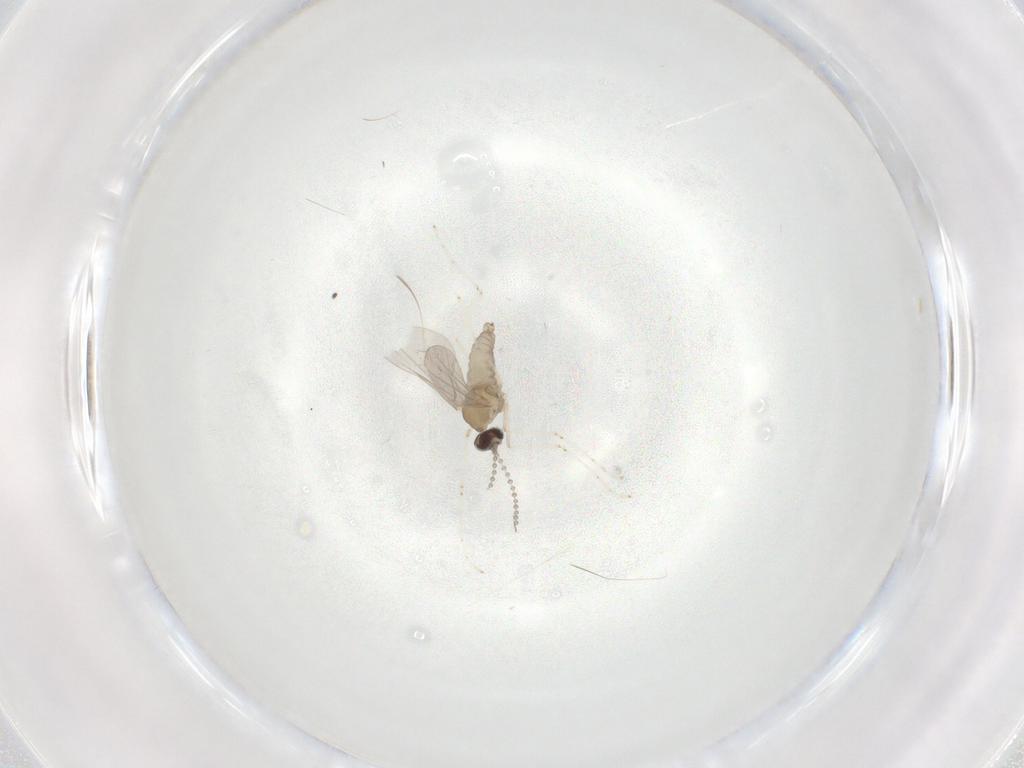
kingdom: Animalia
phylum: Arthropoda
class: Insecta
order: Diptera
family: Cecidomyiidae
